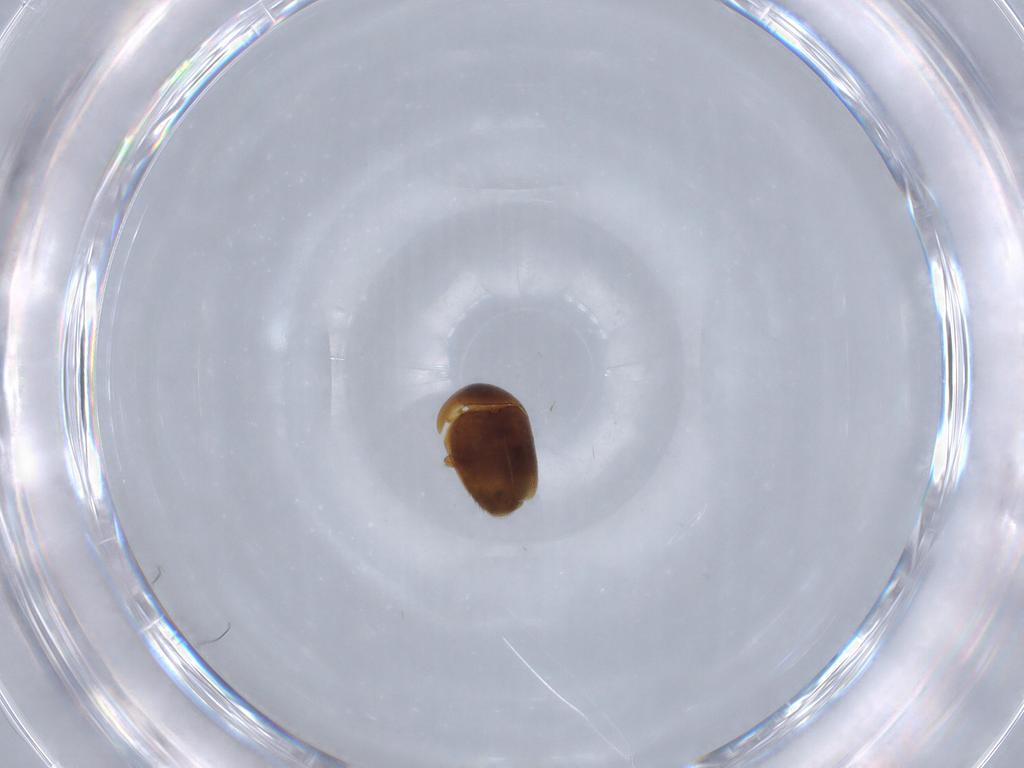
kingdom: Animalia
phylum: Arthropoda
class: Insecta
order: Coleoptera
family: Corylophidae
